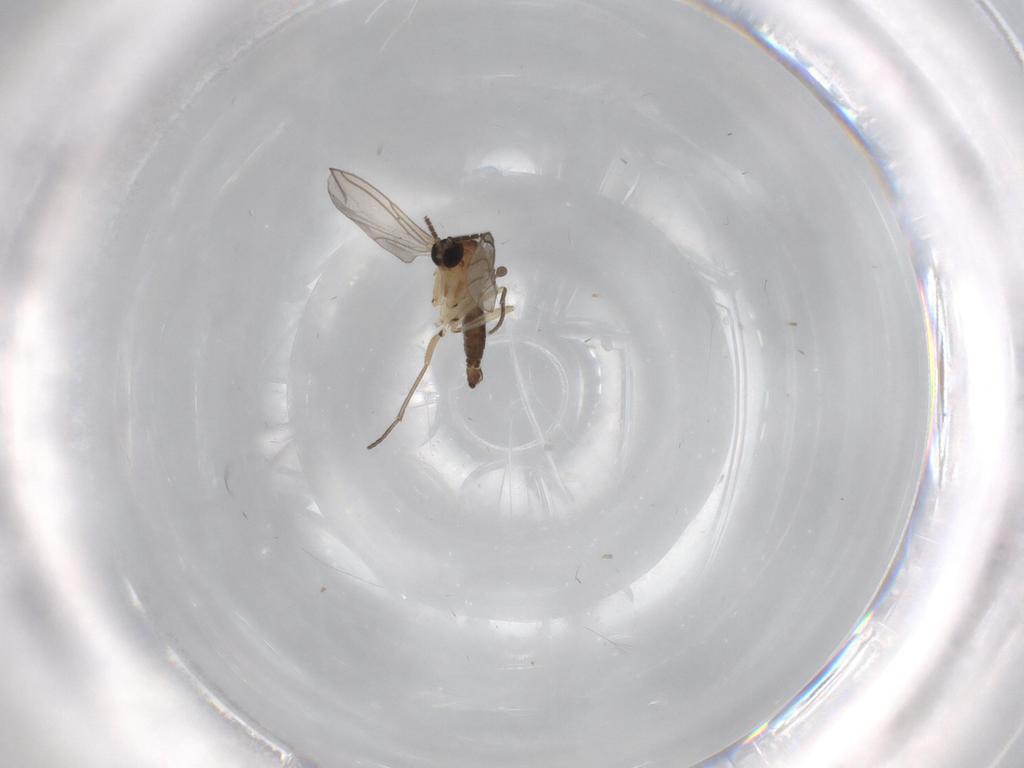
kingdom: Animalia
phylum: Arthropoda
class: Insecta
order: Diptera
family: Sciaridae
